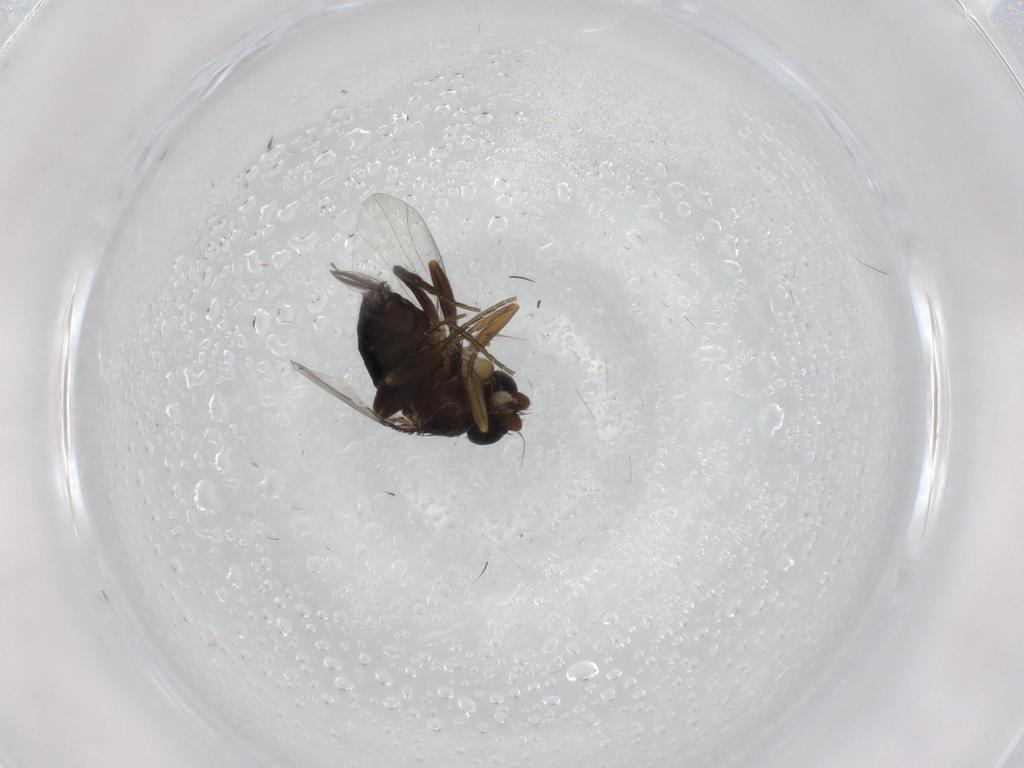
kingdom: Animalia
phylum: Arthropoda
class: Insecta
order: Diptera
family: Phoridae
